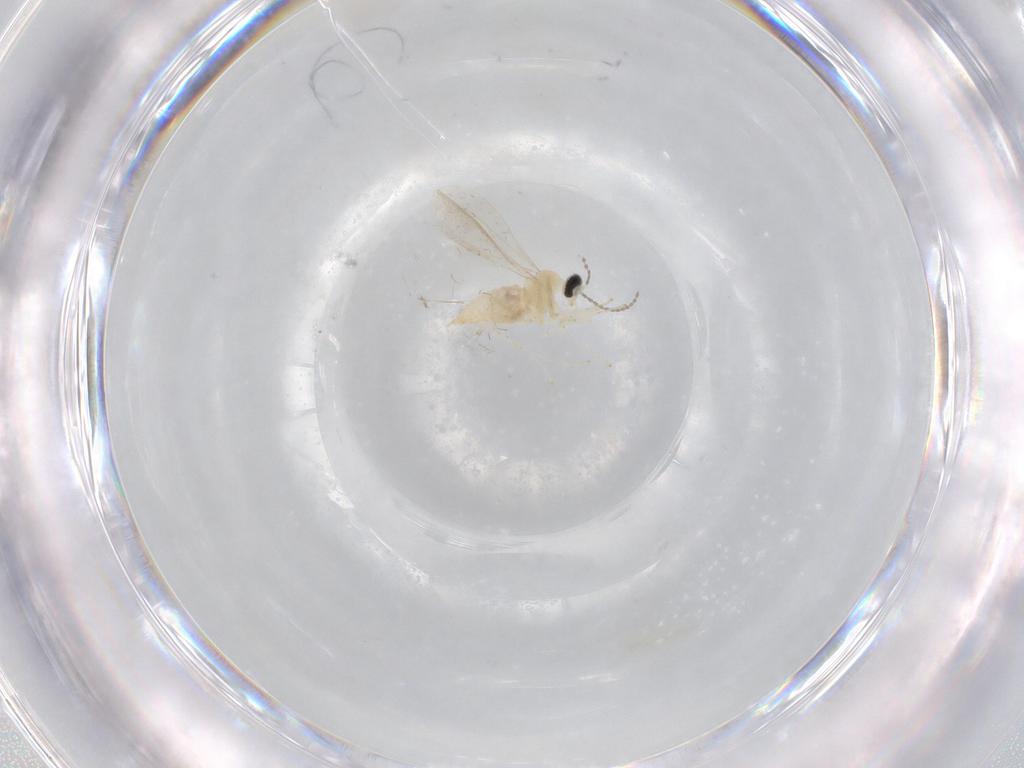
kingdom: Animalia
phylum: Arthropoda
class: Insecta
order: Diptera
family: Cecidomyiidae
